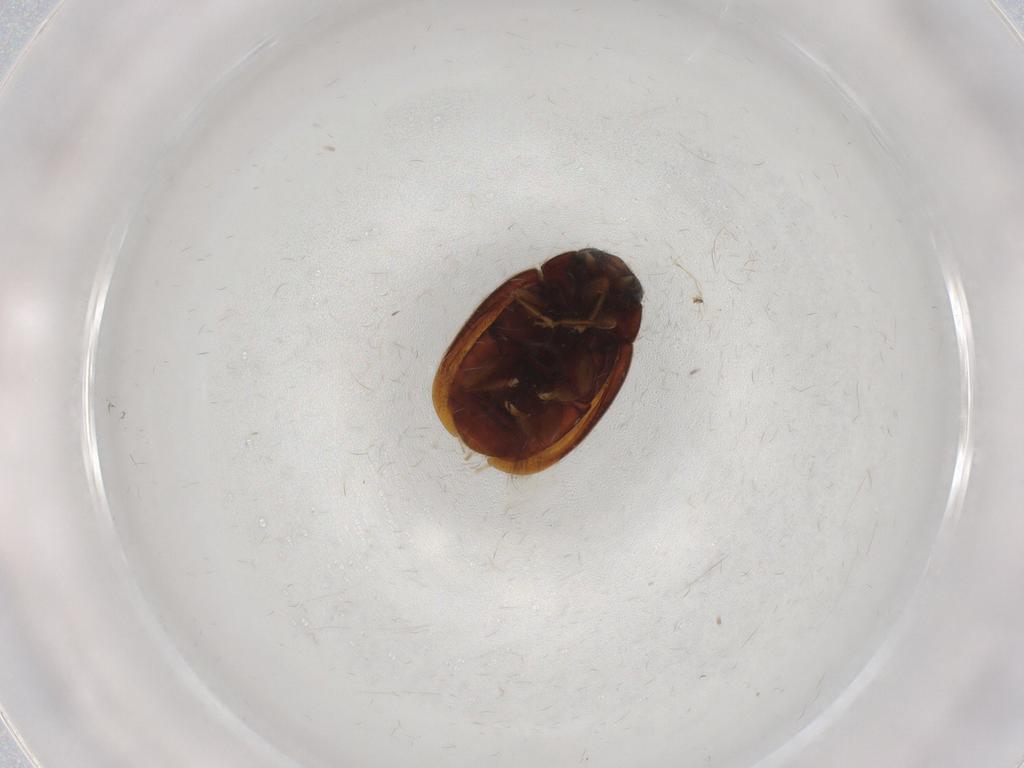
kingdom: Animalia
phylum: Arthropoda
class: Insecta
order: Coleoptera
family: Coccinellidae
